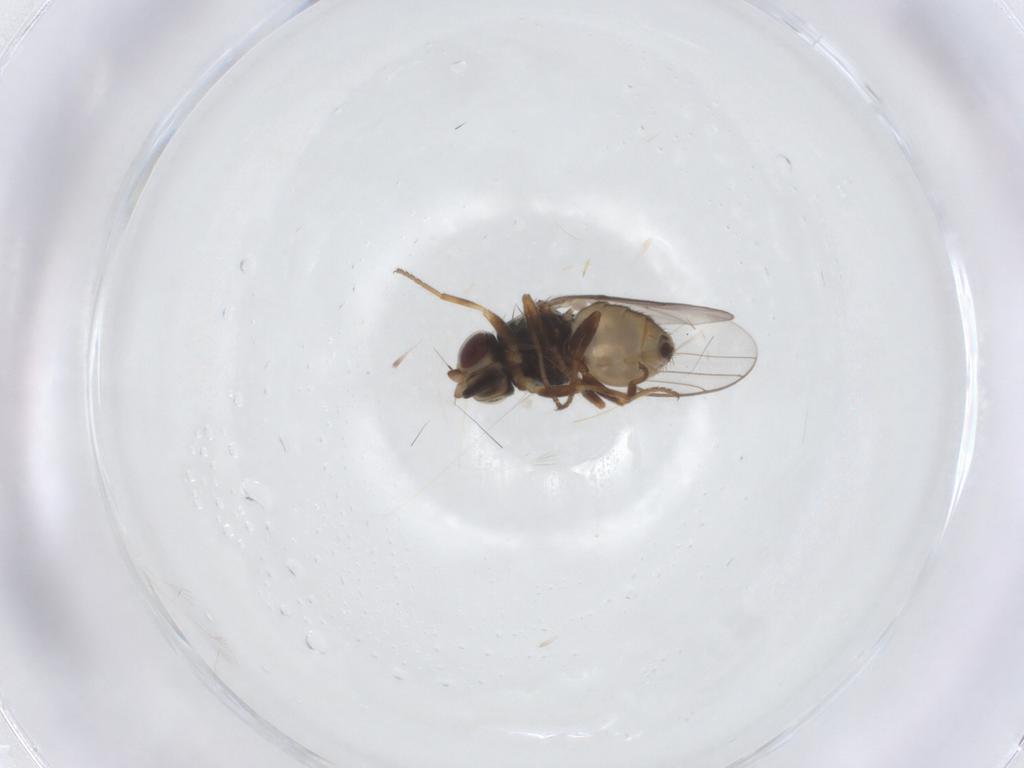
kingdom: Animalia
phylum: Arthropoda
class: Insecta
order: Diptera
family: Chloropidae
